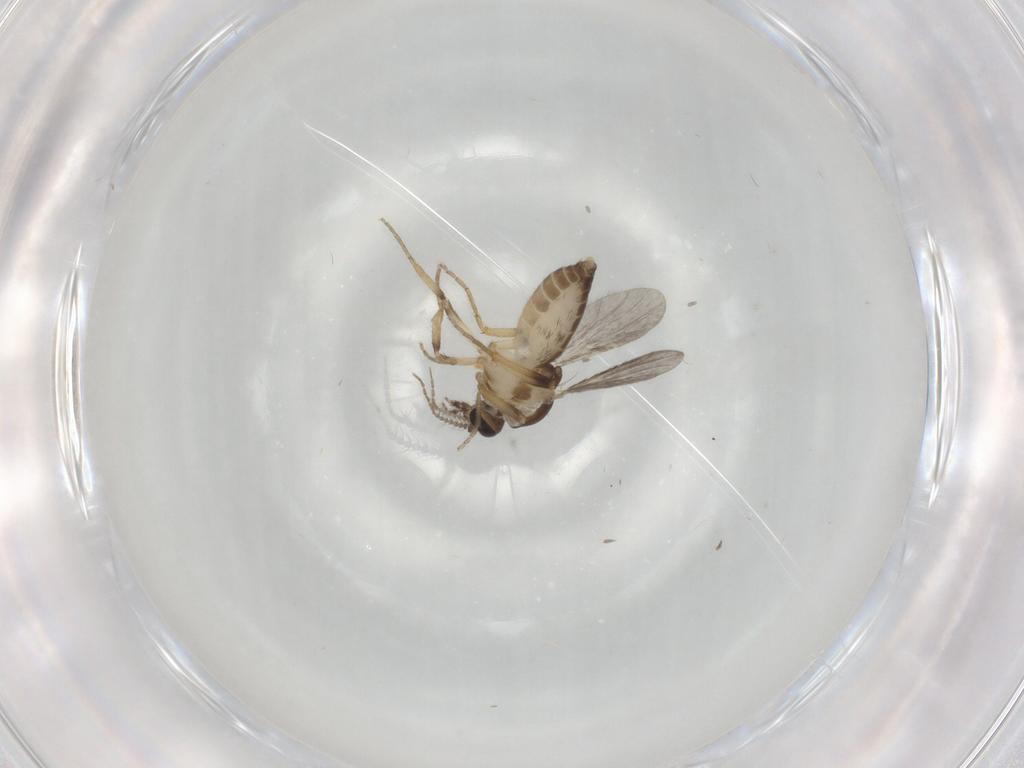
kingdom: Animalia
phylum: Arthropoda
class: Insecta
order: Diptera
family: Ceratopogonidae
